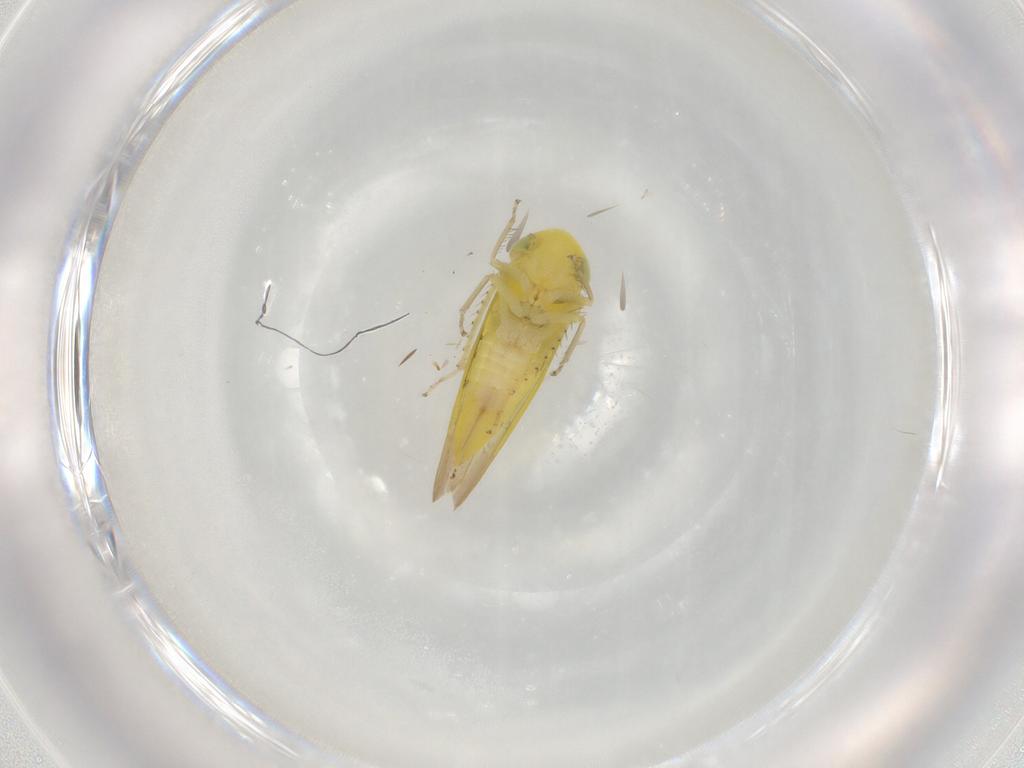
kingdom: Animalia
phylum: Arthropoda
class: Insecta
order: Hemiptera
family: Cicadellidae
